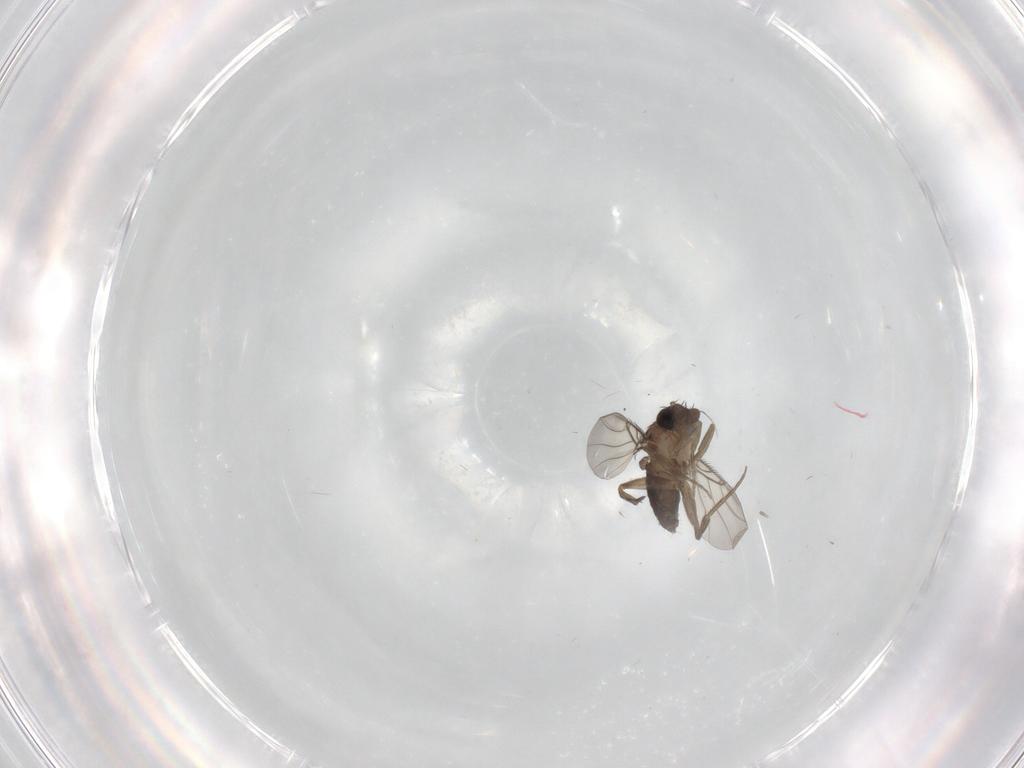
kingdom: Animalia
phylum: Arthropoda
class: Insecta
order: Diptera
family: Phoridae
